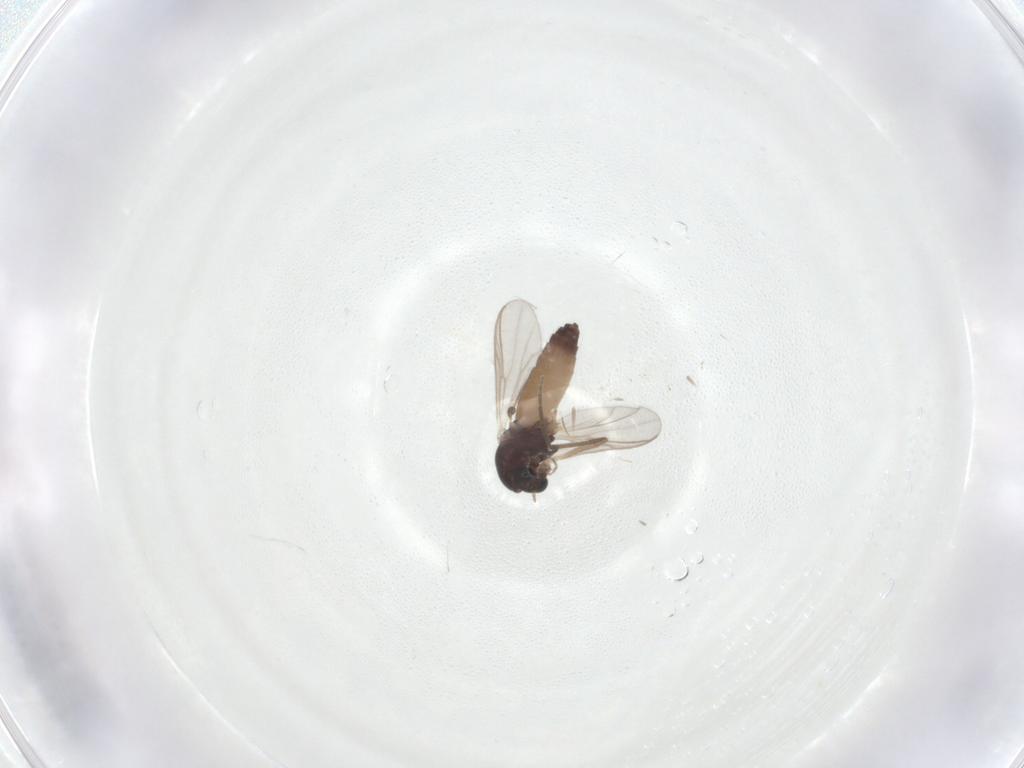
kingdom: Animalia
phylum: Arthropoda
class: Insecta
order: Diptera
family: Chironomidae
